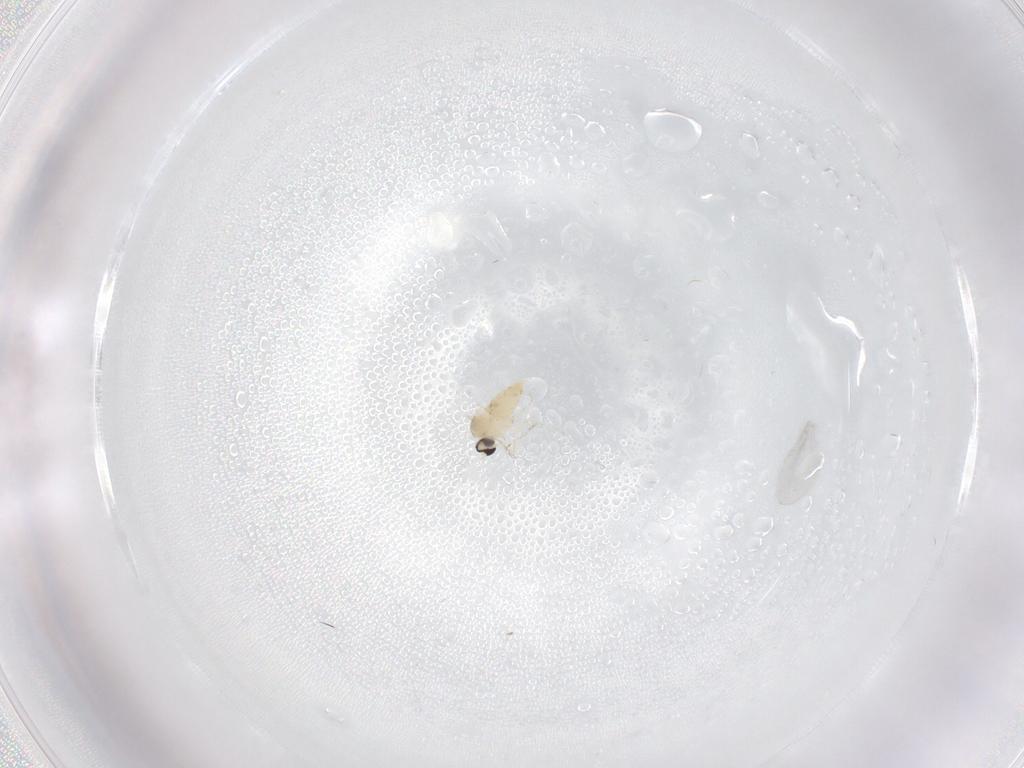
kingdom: Animalia
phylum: Arthropoda
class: Insecta
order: Diptera
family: Cecidomyiidae
